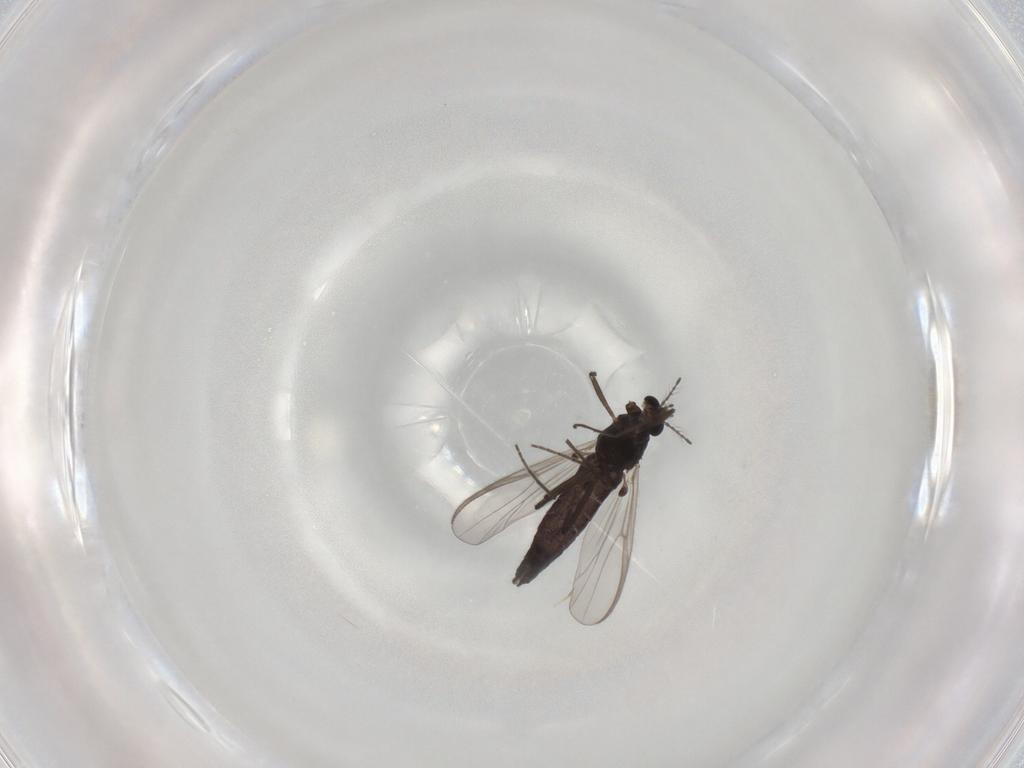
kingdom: Animalia
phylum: Arthropoda
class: Insecta
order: Diptera
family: Chironomidae
